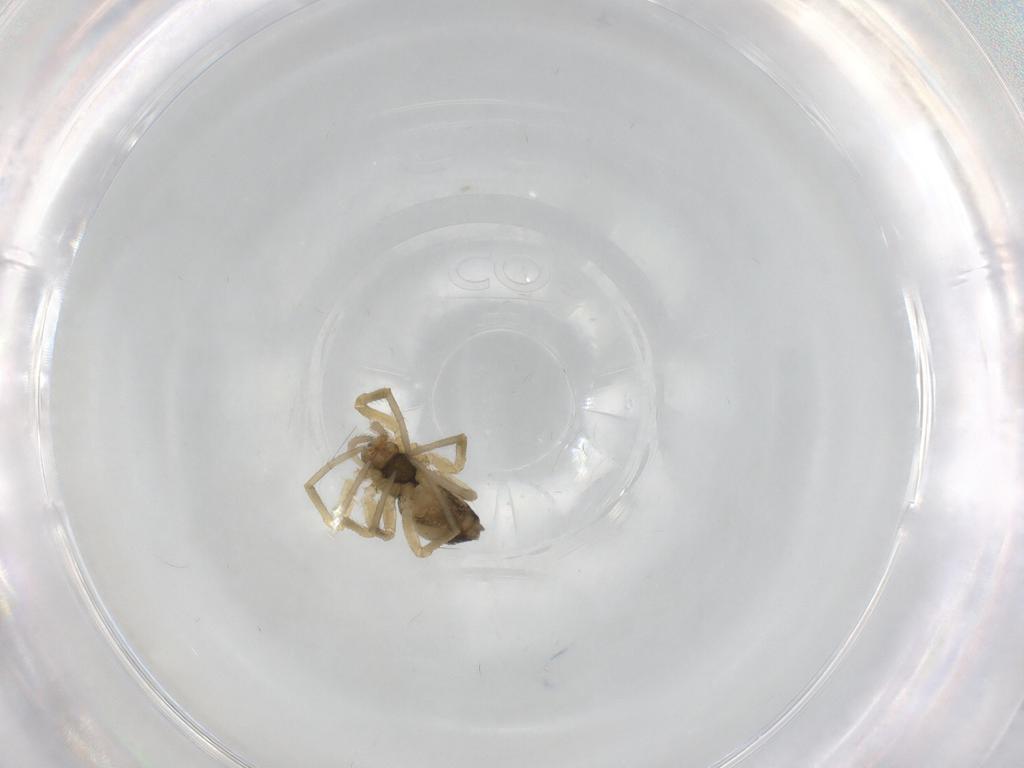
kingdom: Animalia
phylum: Arthropoda
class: Arachnida
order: Araneae
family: Linyphiidae
